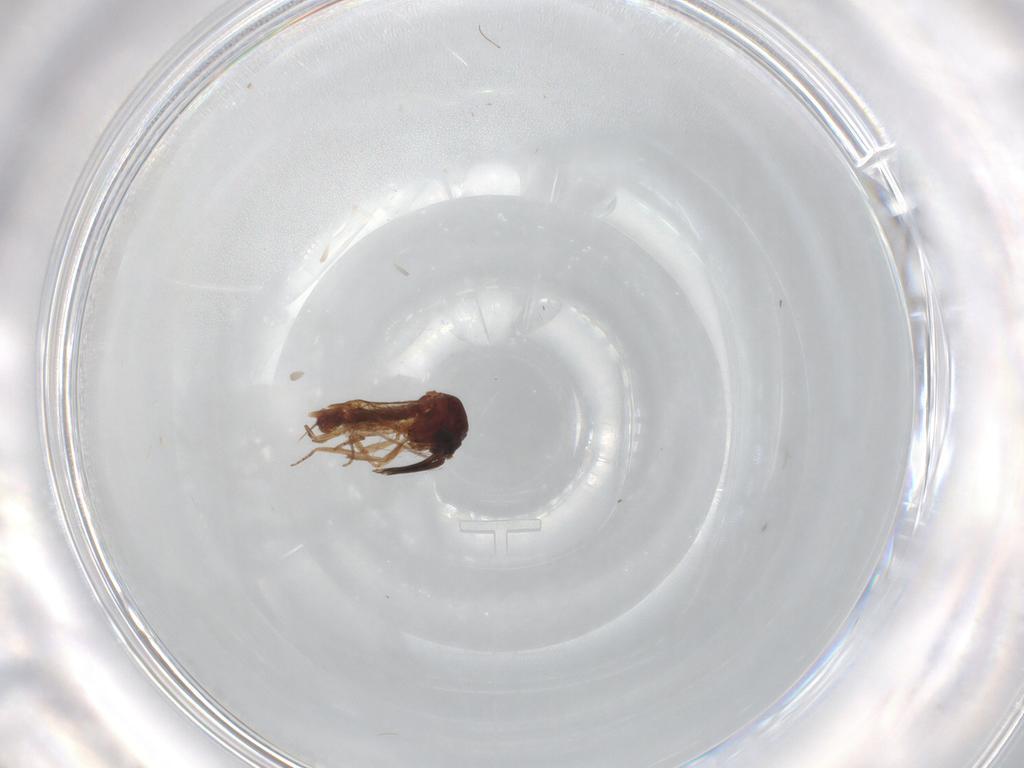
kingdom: Animalia
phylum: Arthropoda
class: Insecta
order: Diptera
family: Ceratopogonidae
